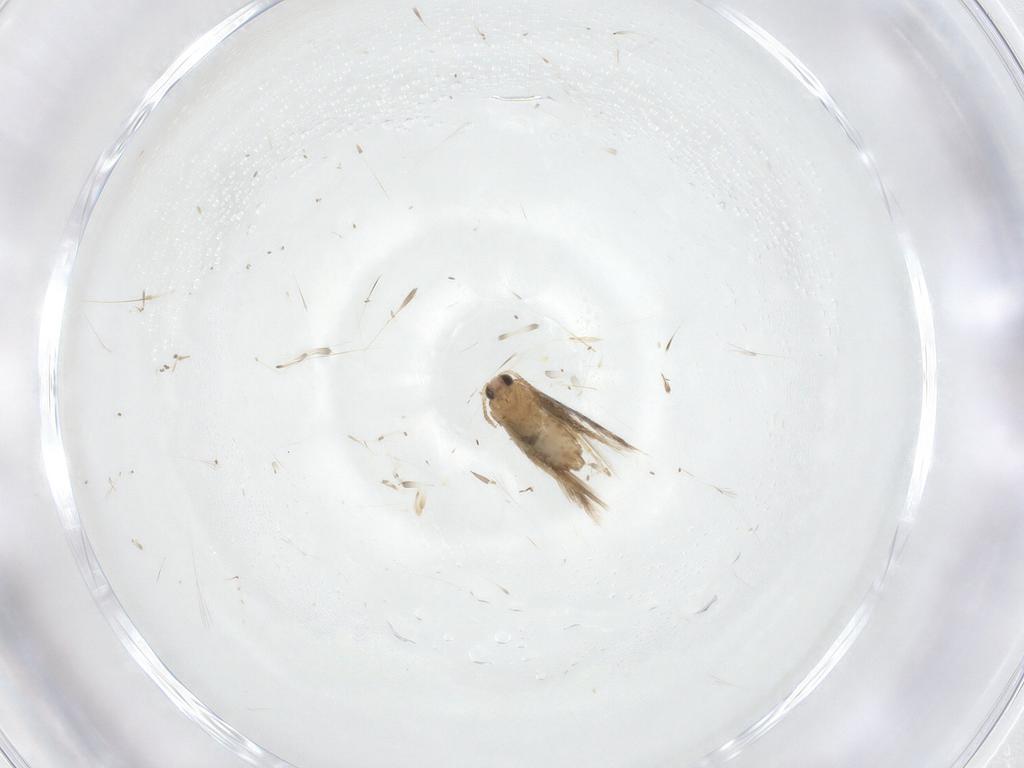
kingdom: Animalia
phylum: Arthropoda
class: Insecta
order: Lepidoptera
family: Nepticulidae
